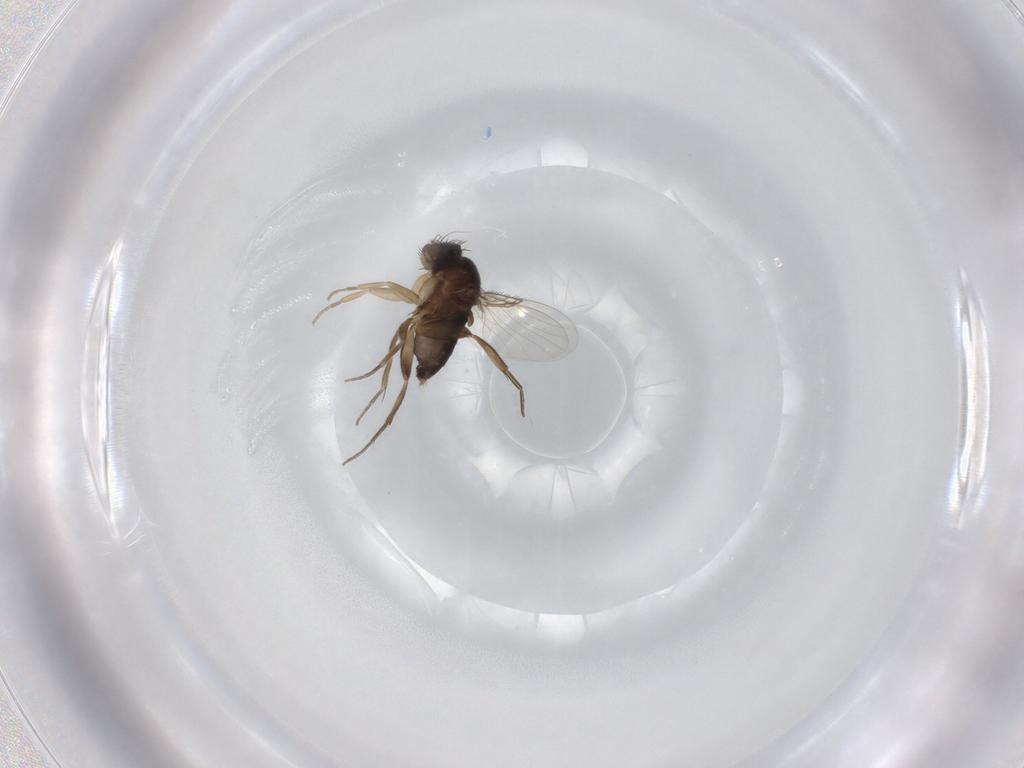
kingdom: Animalia
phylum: Arthropoda
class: Insecta
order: Diptera
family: Phoridae
